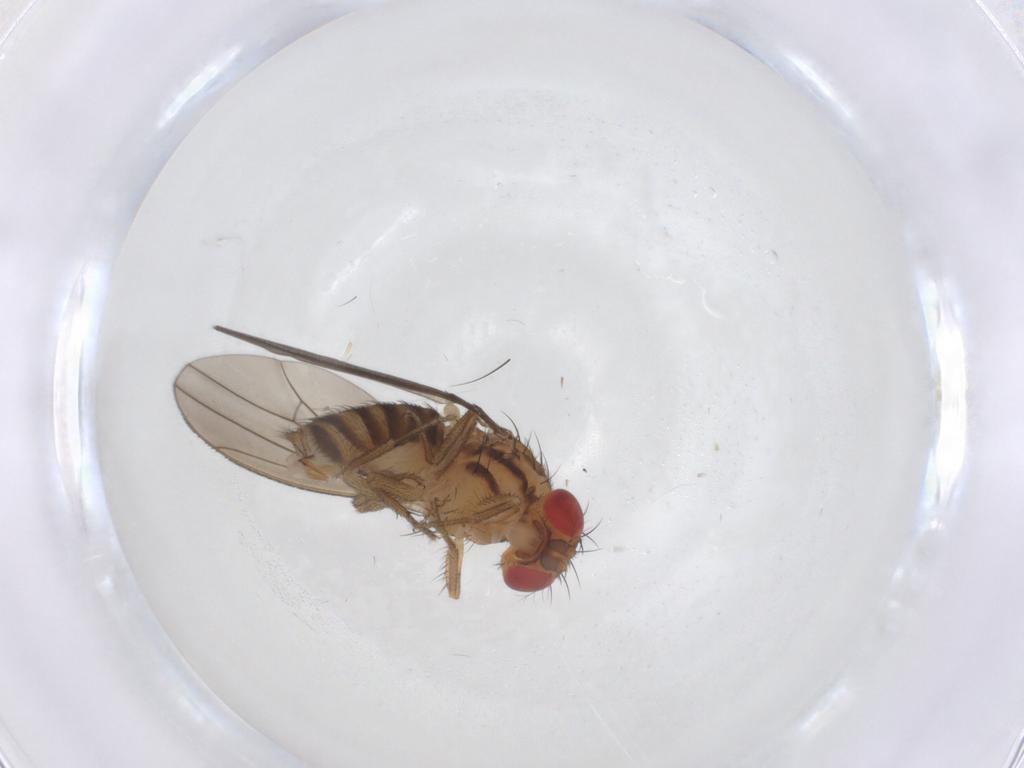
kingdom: Animalia
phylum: Arthropoda
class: Insecta
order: Diptera
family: Drosophilidae
